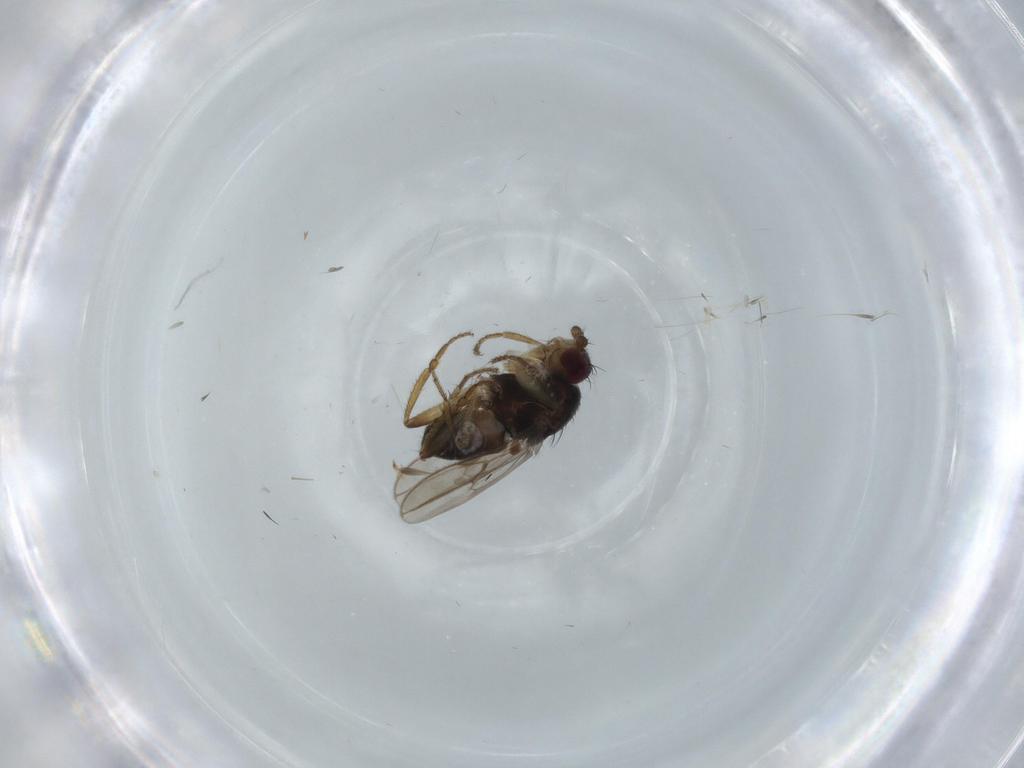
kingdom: Animalia
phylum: Arthropoda
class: Insecta
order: Diptera
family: Sphaeroceridae
